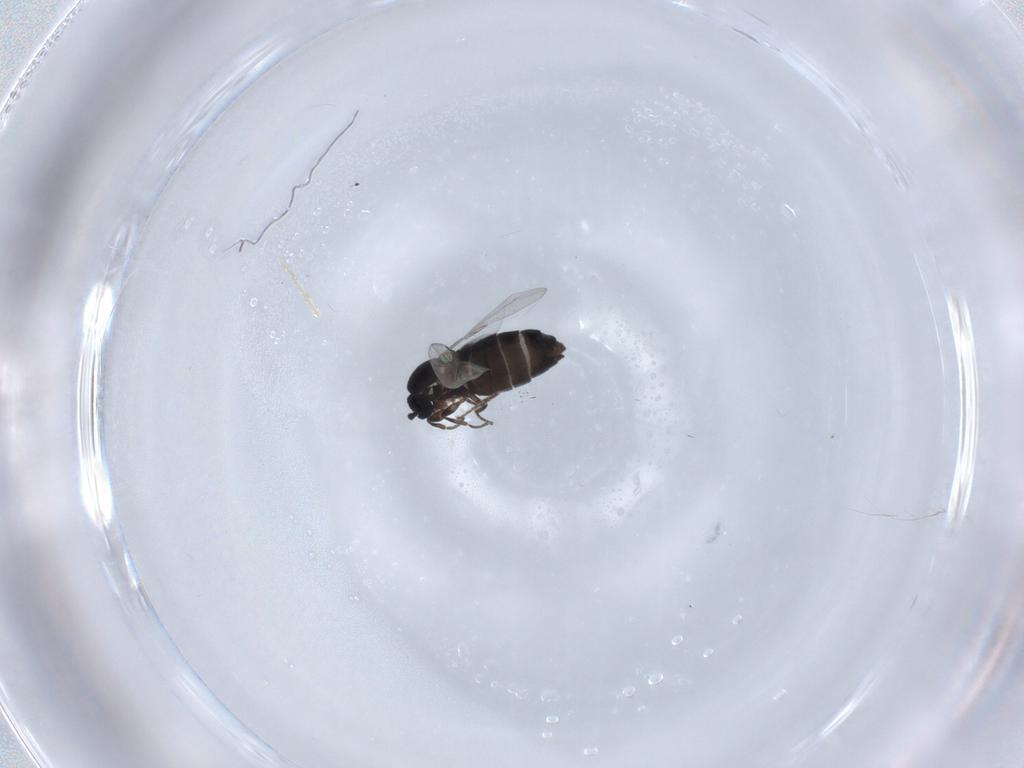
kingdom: Animalia
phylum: Arthropoda
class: Insecta
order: Diptera
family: Scatopsidae
